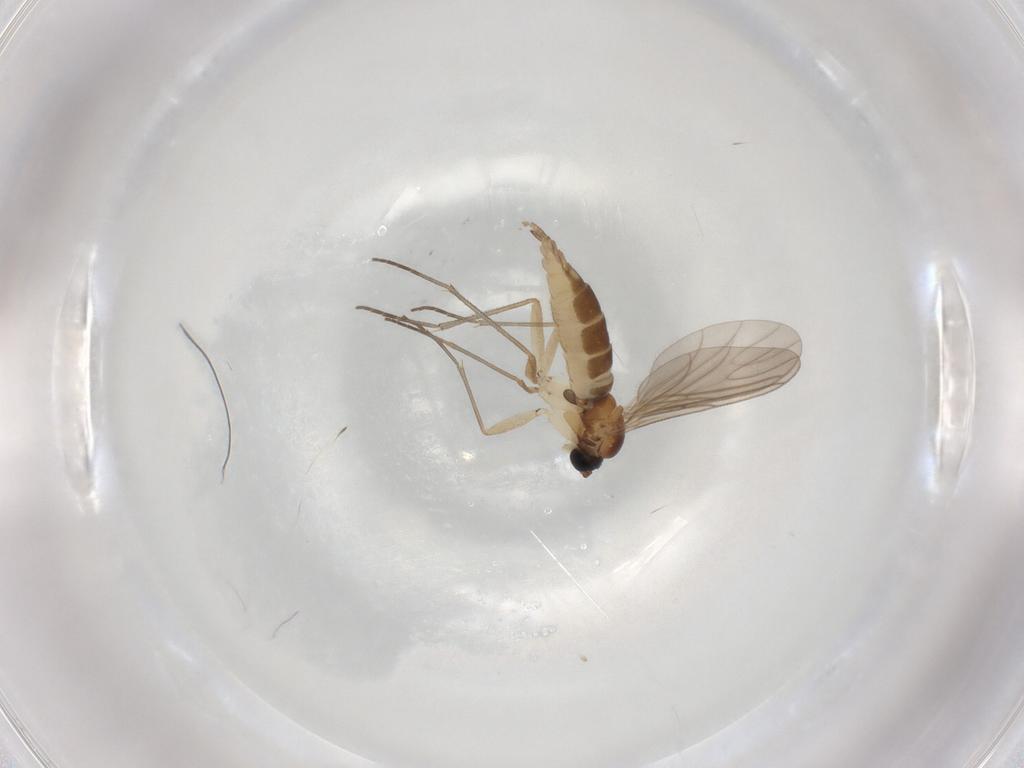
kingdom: Animalia
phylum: Arthropoda
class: Insecta
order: Diptera
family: Sciaridae
